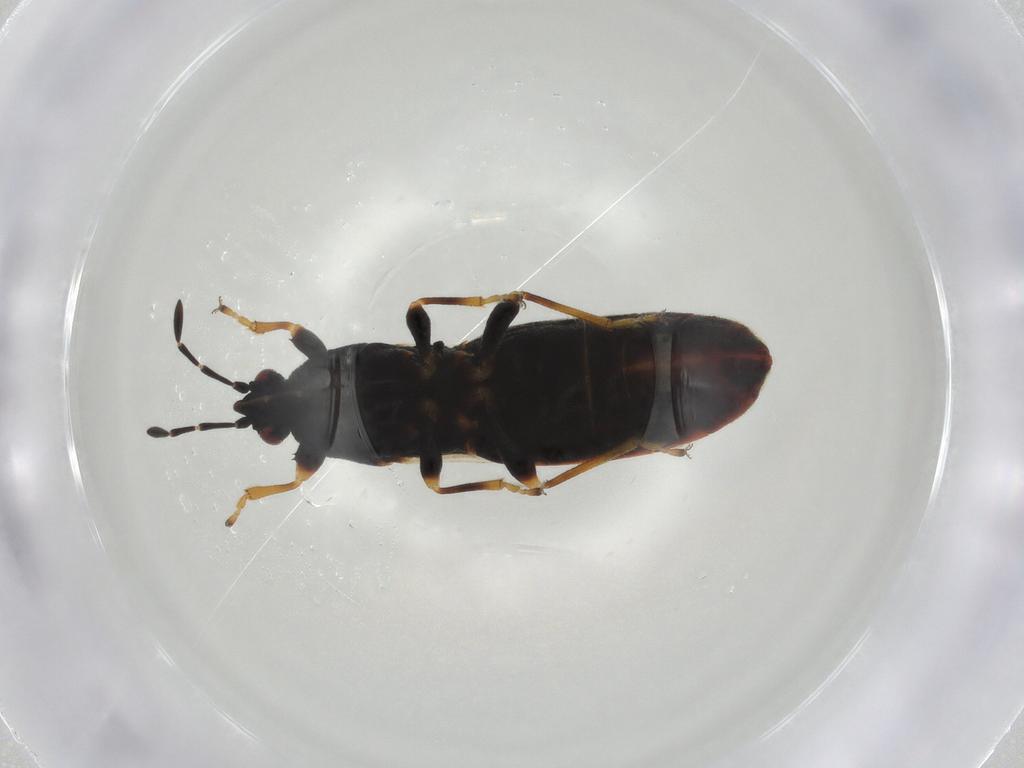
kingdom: Animalia
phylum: Arthropoda
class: Insecta
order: Hemiptera
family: Blissidae
